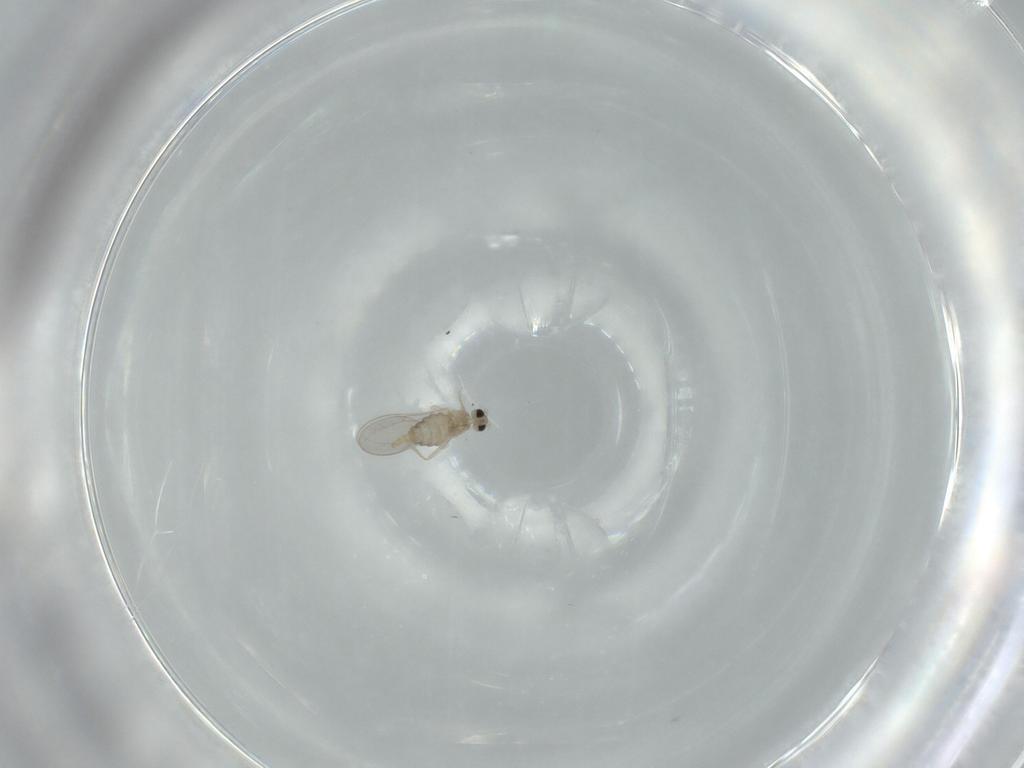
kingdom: Animalia
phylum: Arthropoda
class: Insecta
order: Diptera
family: Cecidomyiidae
